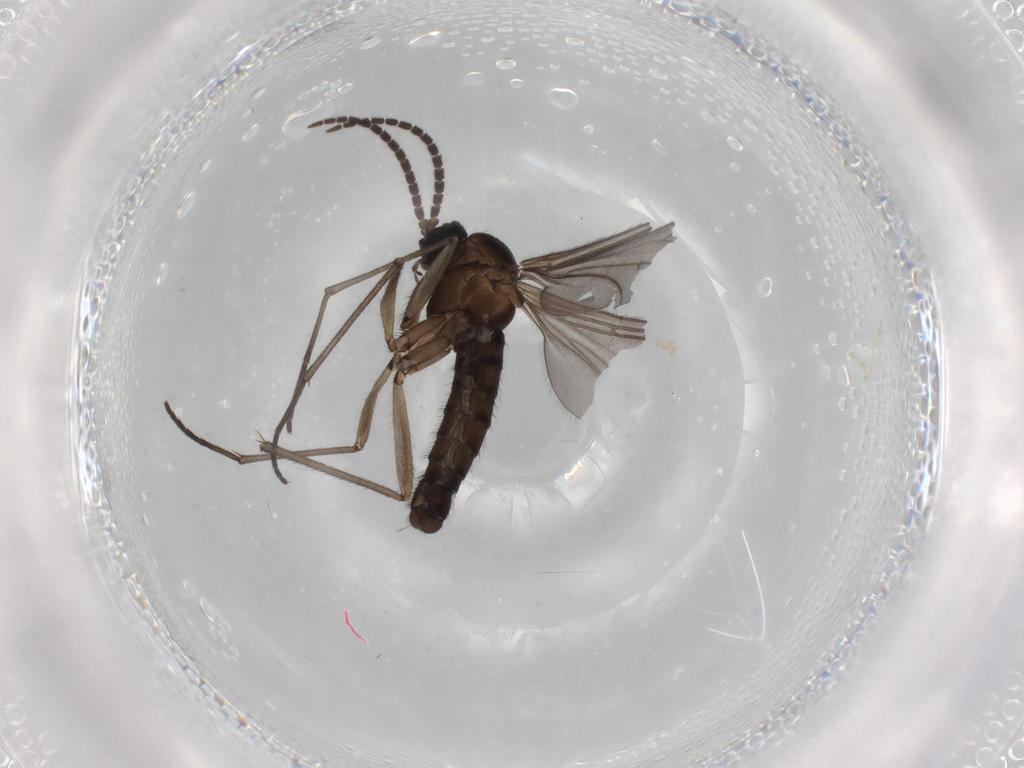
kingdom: Animalia
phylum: Arthropoda
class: Insecta
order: Diptera
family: Sciaridae
